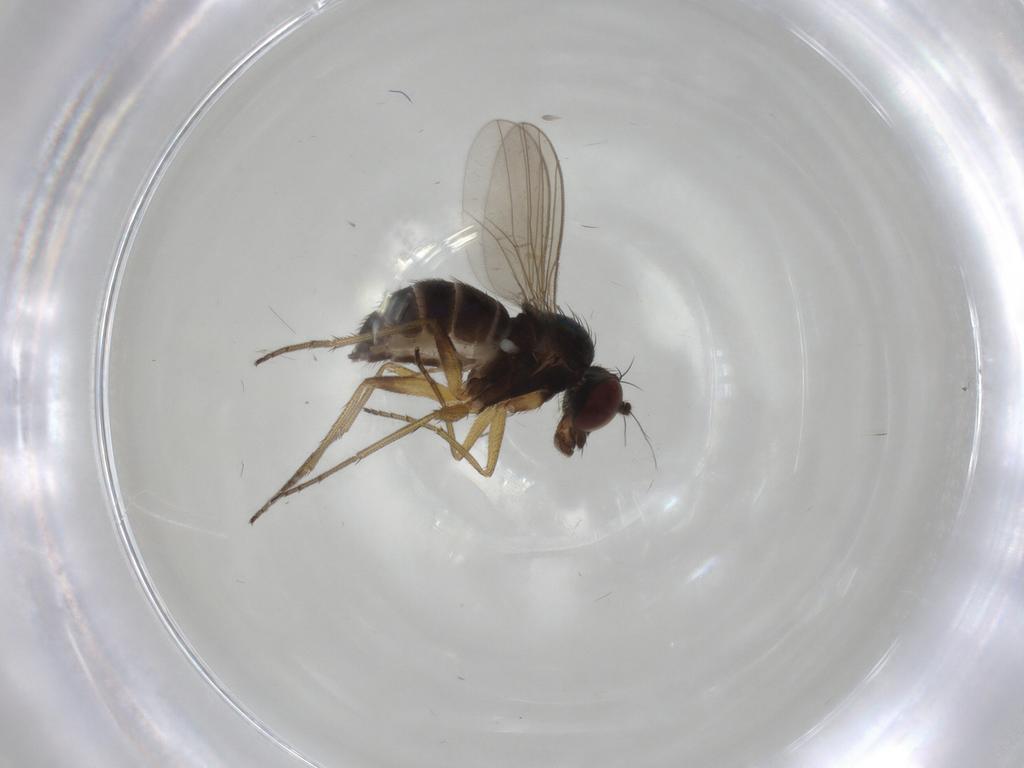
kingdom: Animalia
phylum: Arthropoda
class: Insecta
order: Diptera
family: Dolichopodidae
